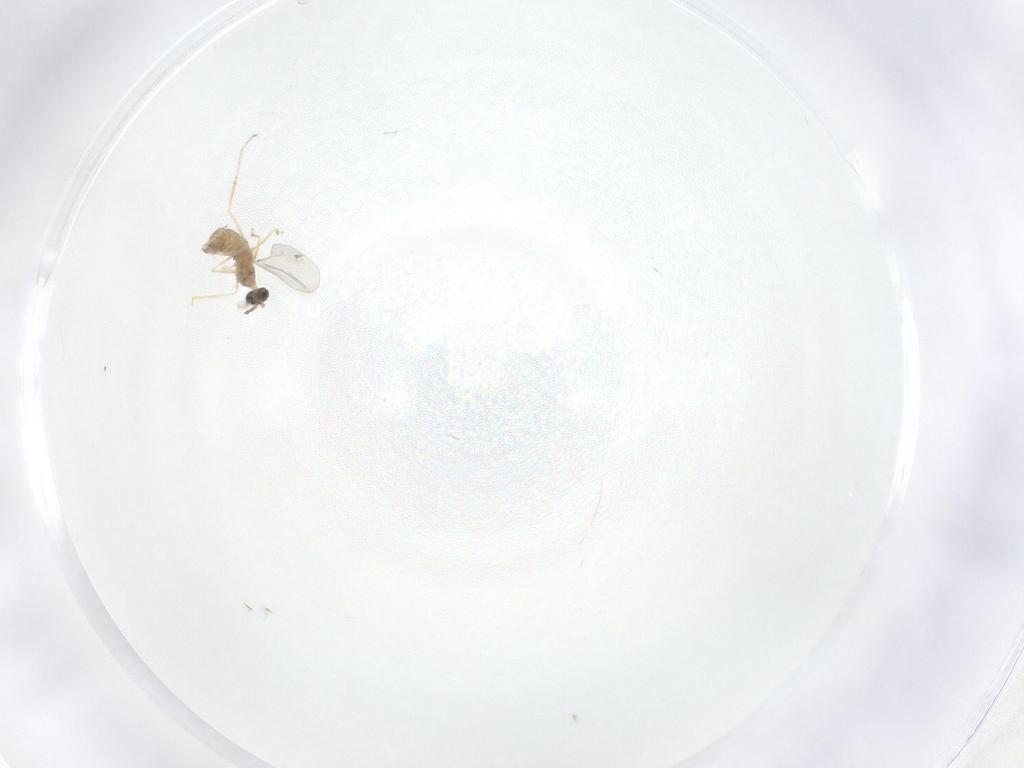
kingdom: Animalia
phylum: Arthropoda
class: Insecta
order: Diptera
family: Cecidomyiidae
